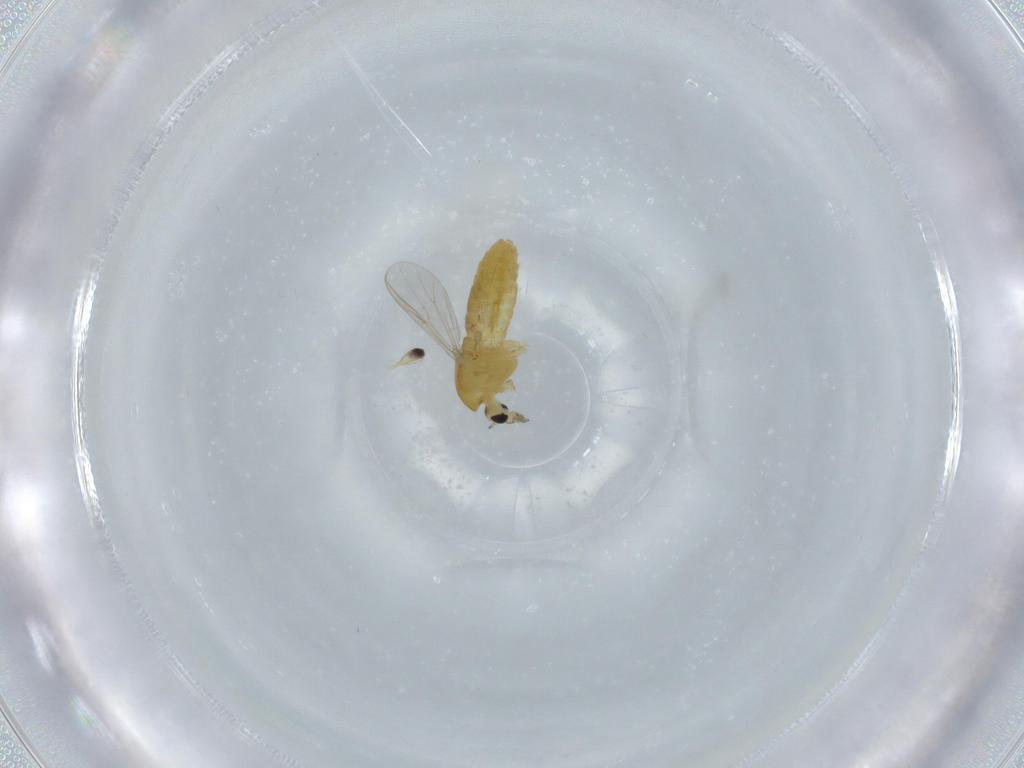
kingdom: Animalia
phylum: Arthropoda
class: Insecta
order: Diptera
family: Chironomidae
